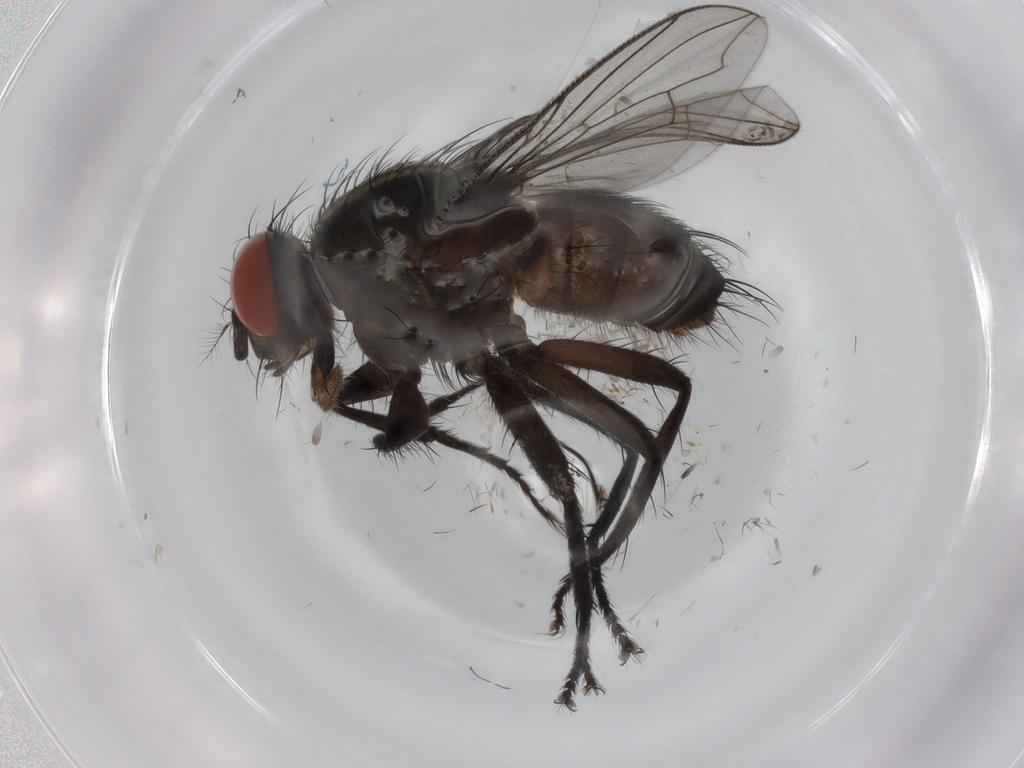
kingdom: Animalia
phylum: Arthropoda
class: Insecta
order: Diptera
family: Sarcophagidae
